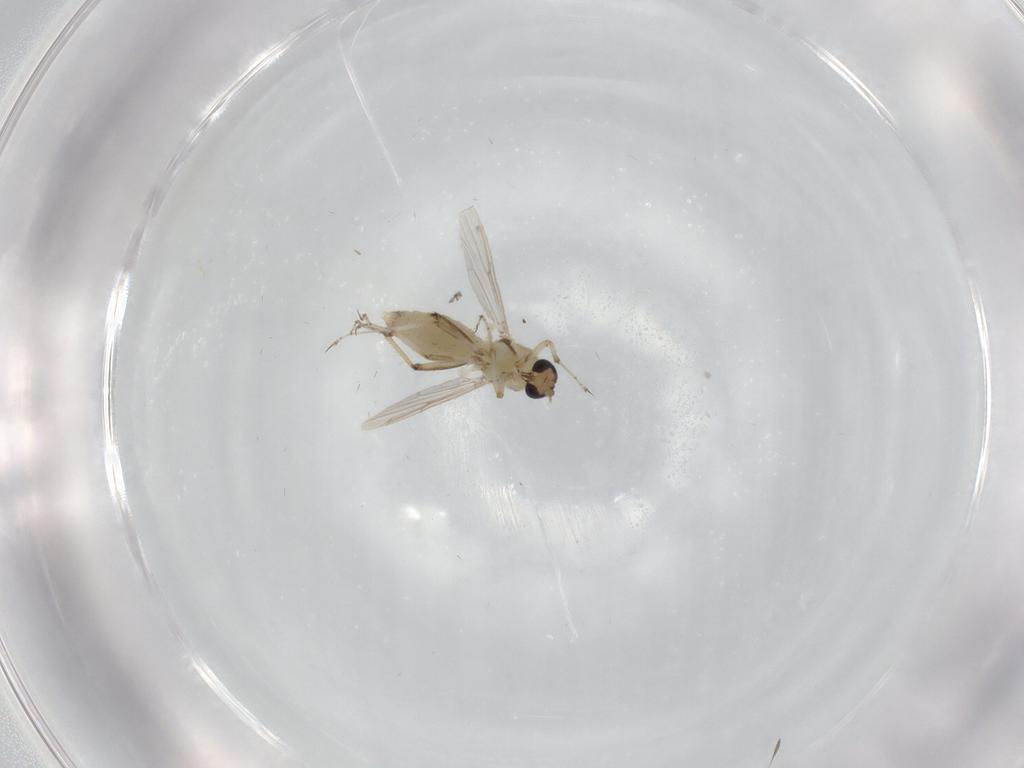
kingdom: Animalia
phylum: Arthropoda
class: Insecta
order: Diptera
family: Ceratopogonidae
